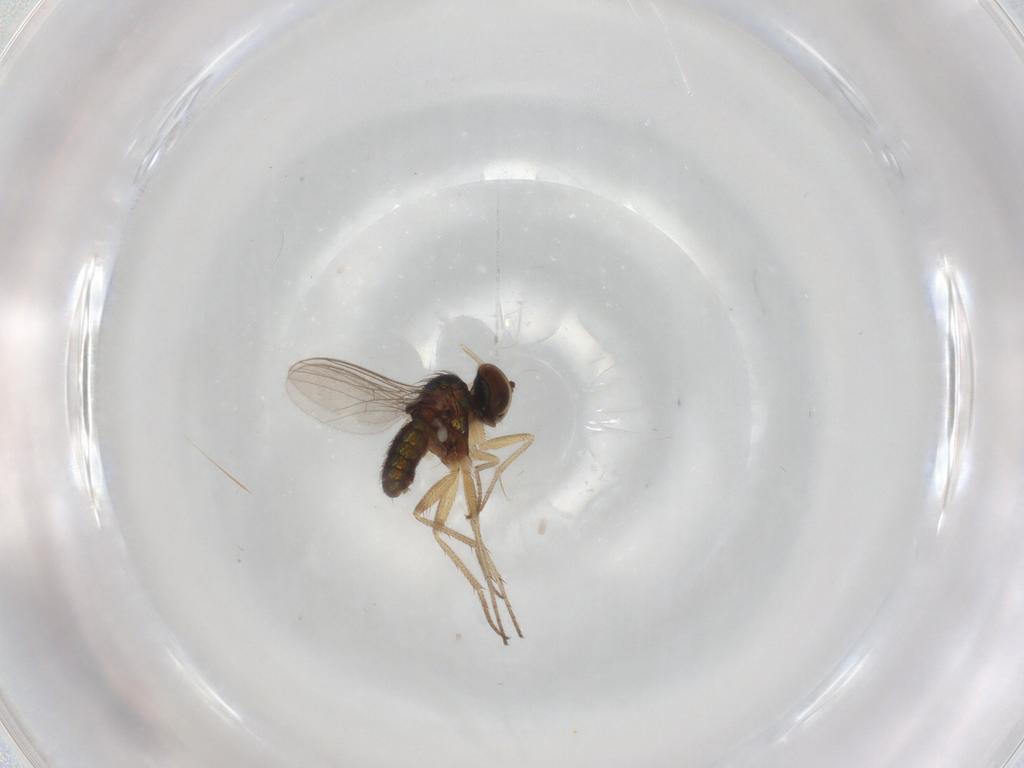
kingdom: Animalia
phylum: Arthropoda
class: Insecta
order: Diptera
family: Psychodidae
